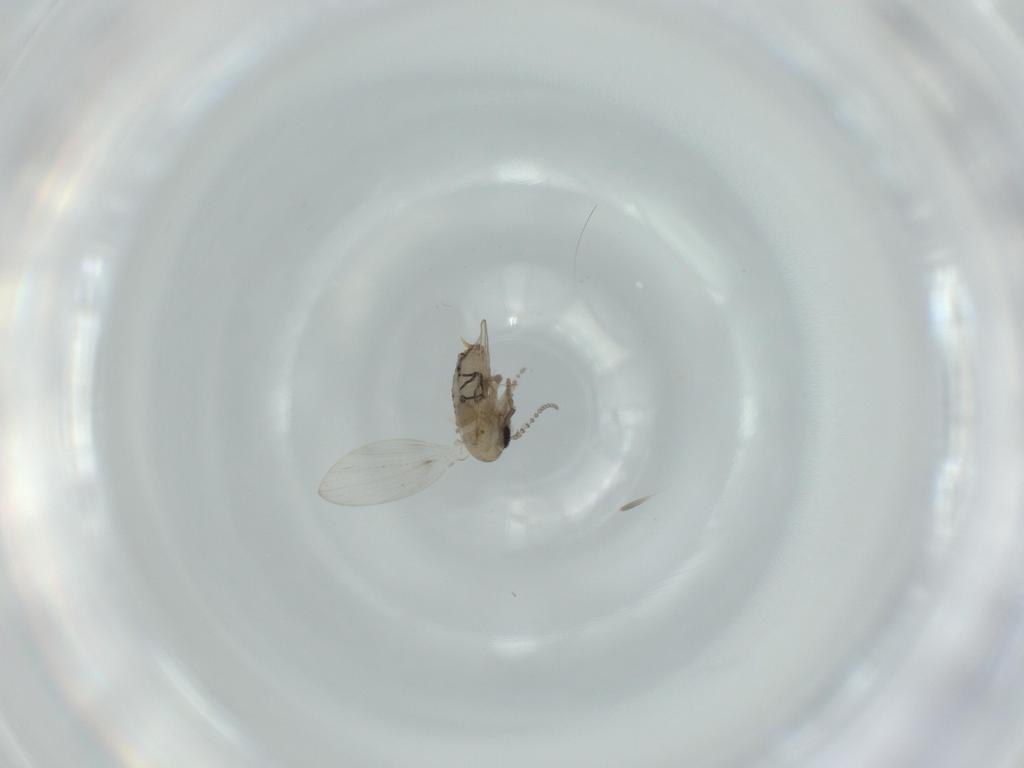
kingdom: Animalia
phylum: Arthropoda
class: Insecta
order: Diptera
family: Psychodidae
